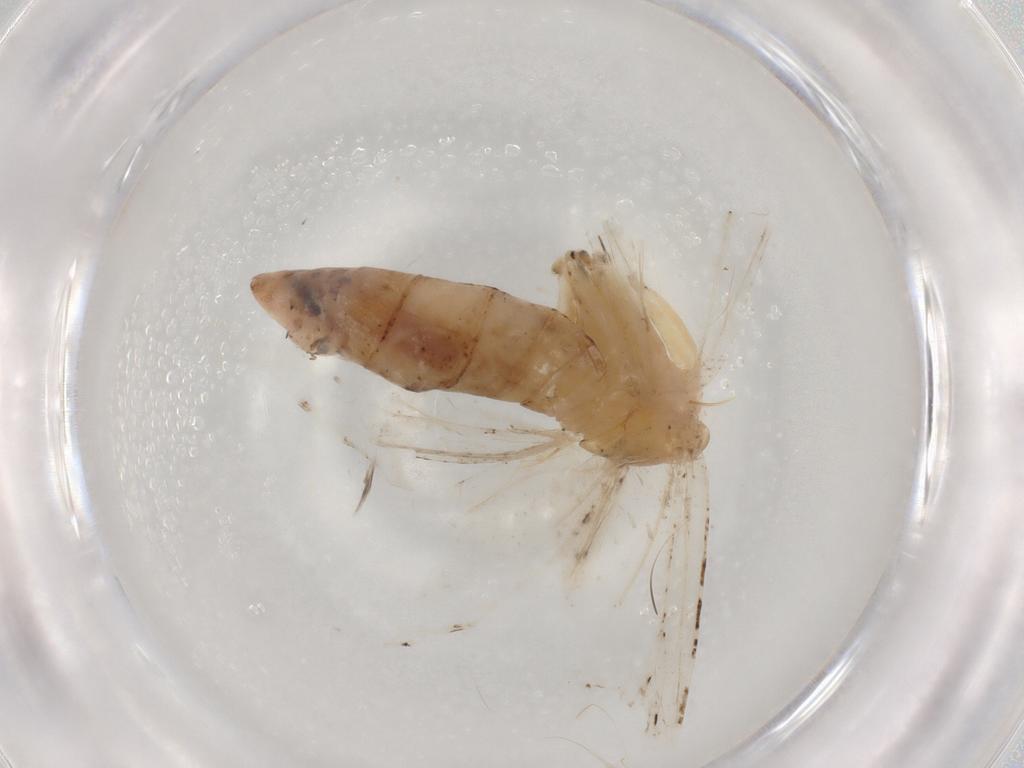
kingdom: Animalia
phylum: Arthropoda
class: Insecta
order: Lepidoptera
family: Geometridae
